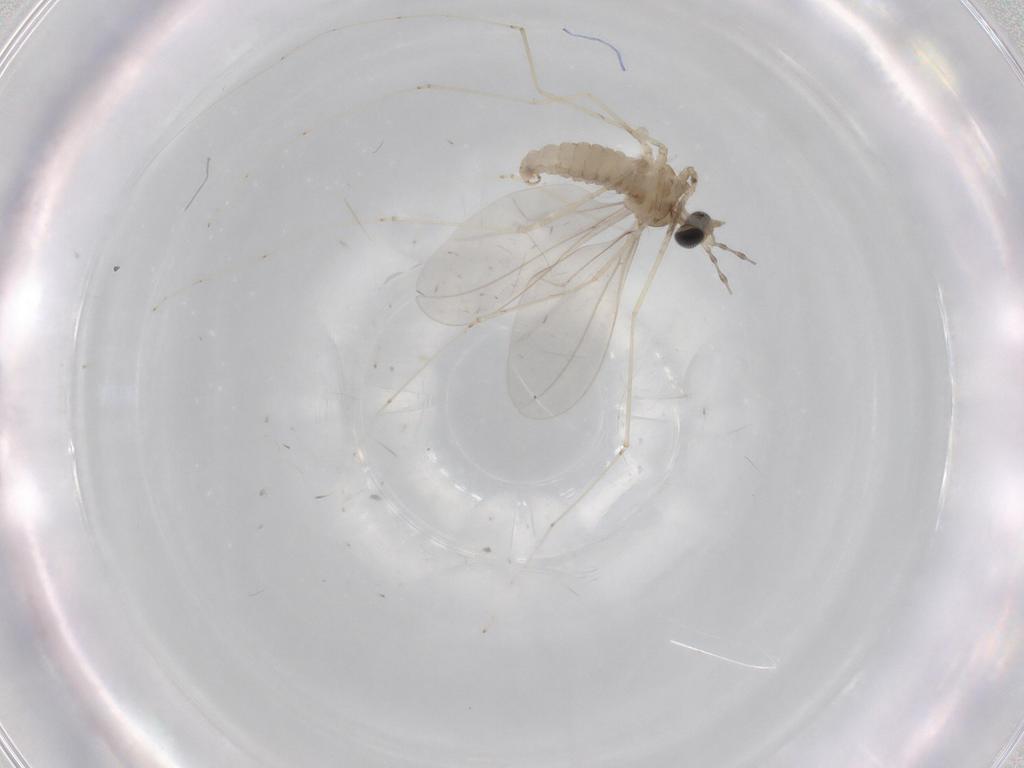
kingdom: Animalia
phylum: Arthropoda
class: Insecta
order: Diptera
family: Cecidomyiidae
